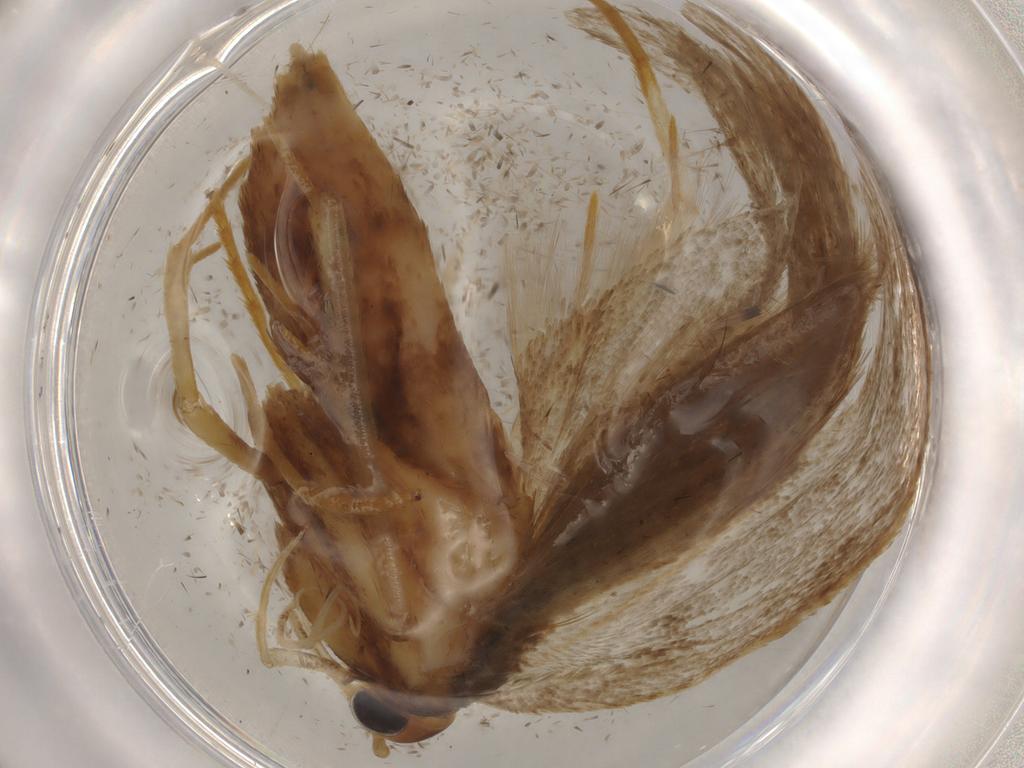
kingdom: Animalia
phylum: Arthropoda
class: Insecta
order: Lepidoptera
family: Lecithoceridae
